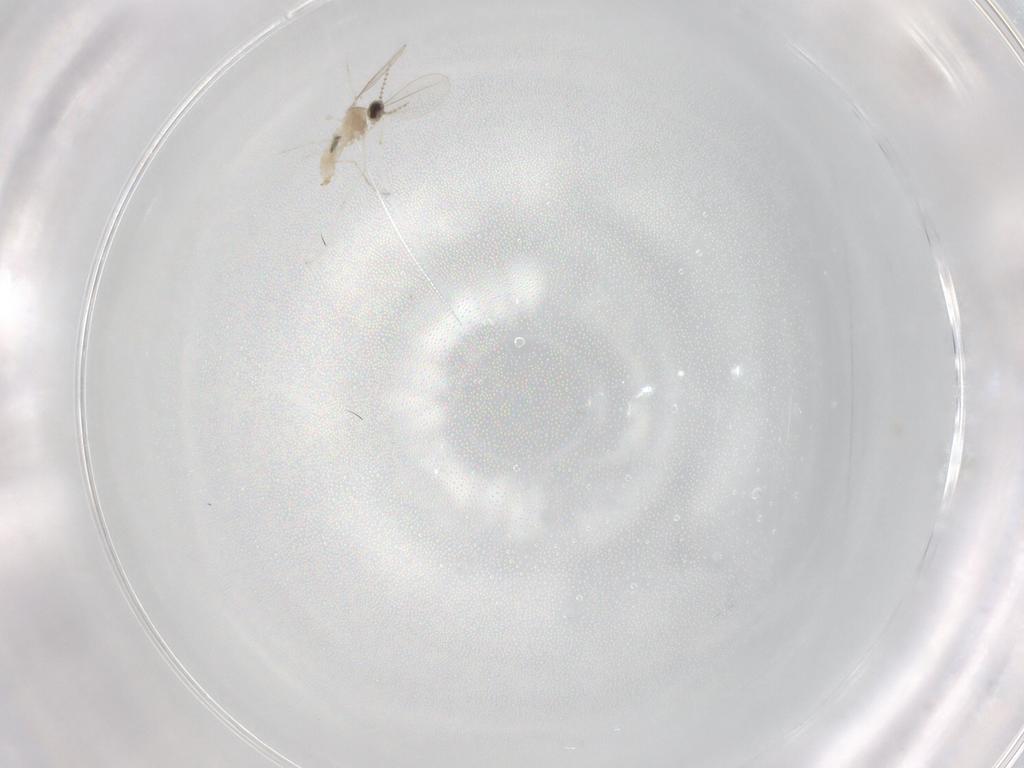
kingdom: Animalia
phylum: Arthropoda
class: Insecta
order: Diptera
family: Cecidomyiidae
